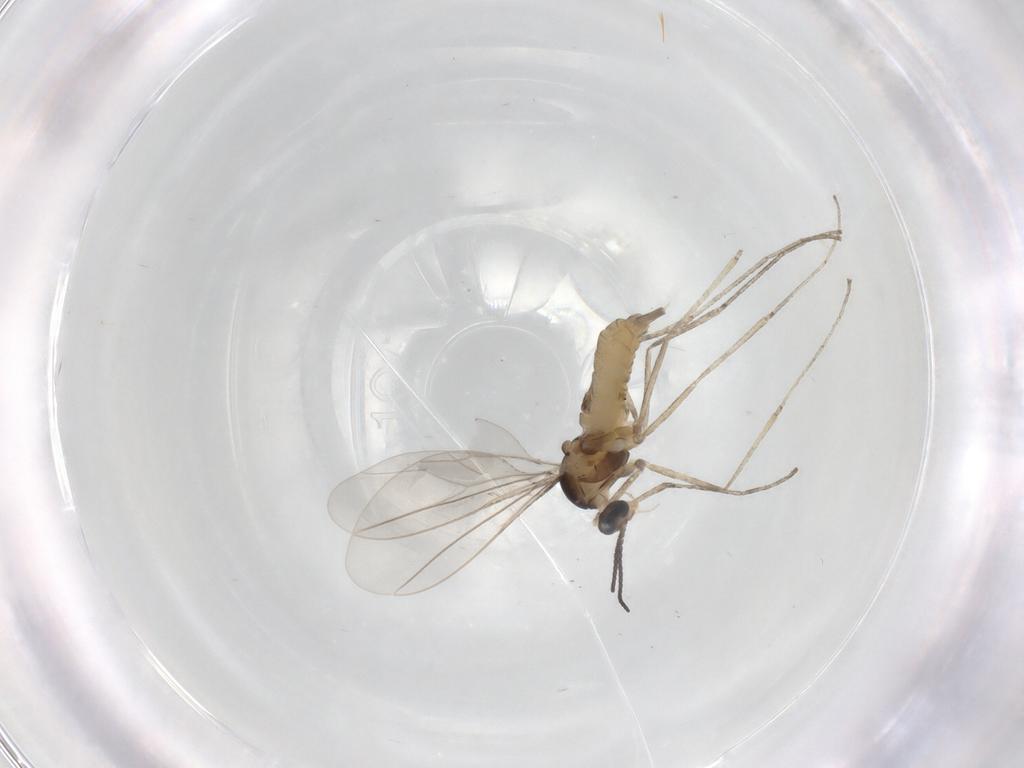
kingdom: Animalia
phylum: Arthropoda
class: Insecta
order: Diptera
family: Cecidomyiidae
